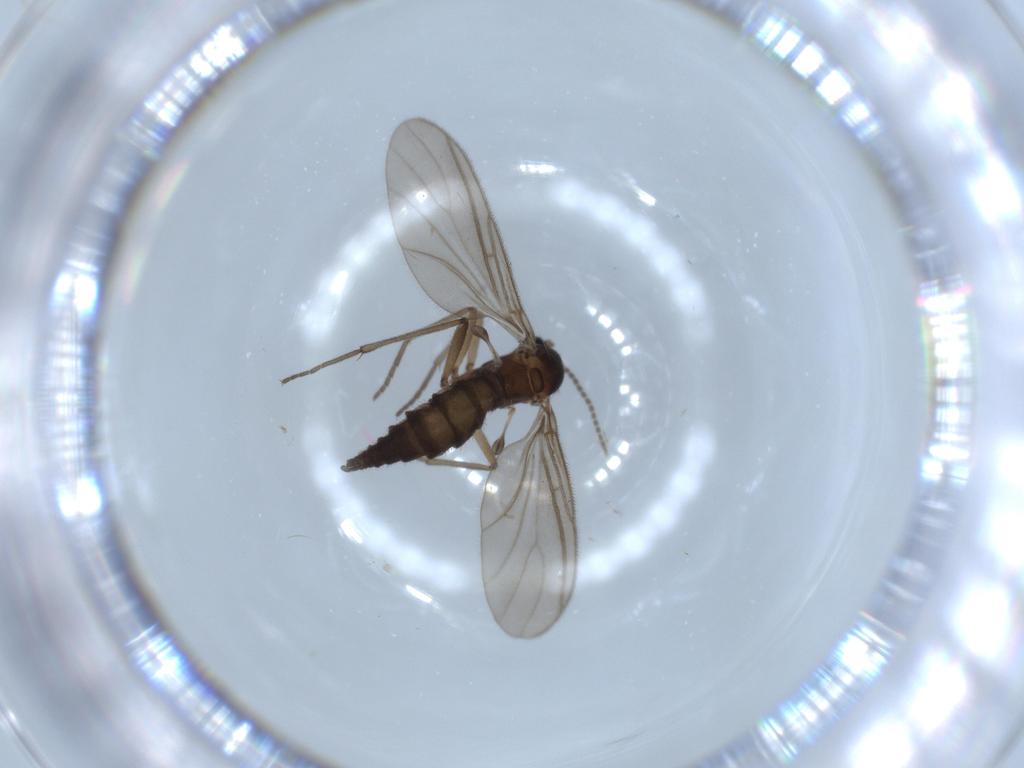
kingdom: Animalia
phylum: Arthropoda
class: Insecta
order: Diptera
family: Sciaridae
